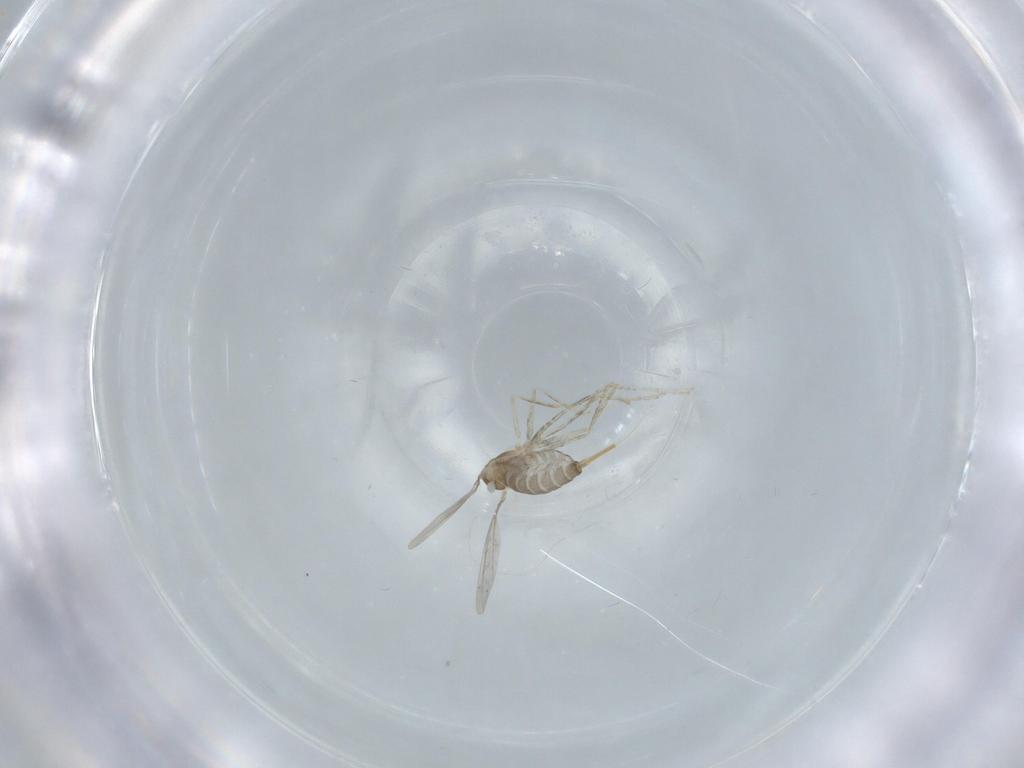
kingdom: Animalia
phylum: Arthropoda
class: Insecta
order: Diptera
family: Cecidomyiidae
